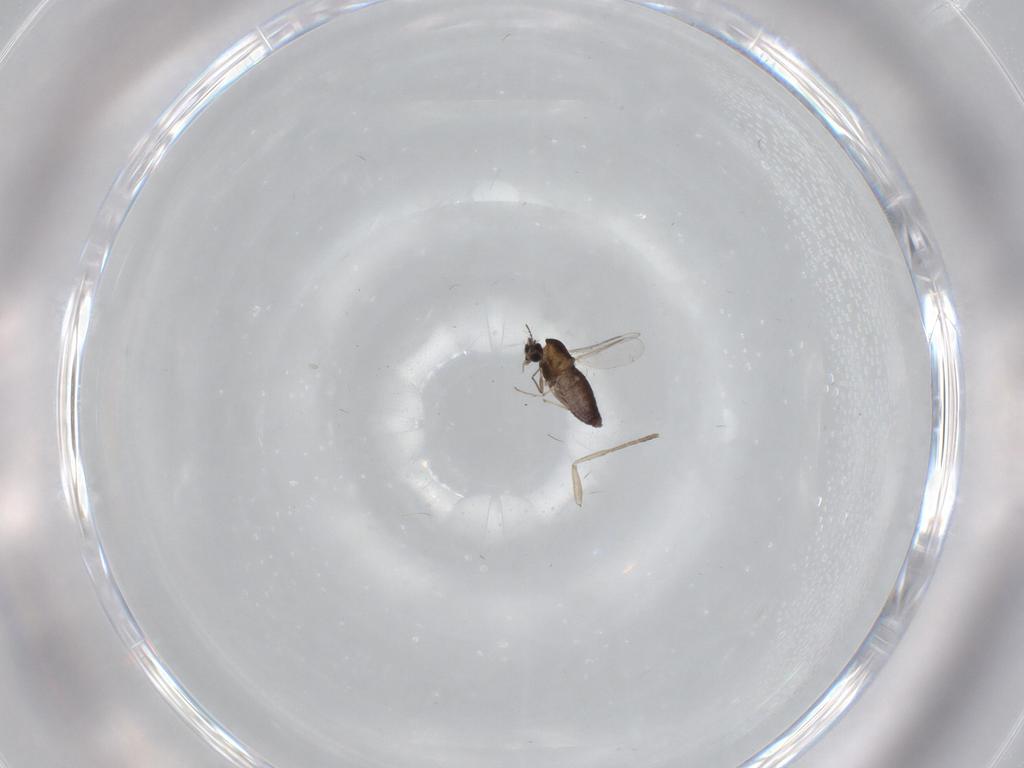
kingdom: Animalia
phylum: Arthropoda
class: Insecta
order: Diptera
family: Chironomidae
